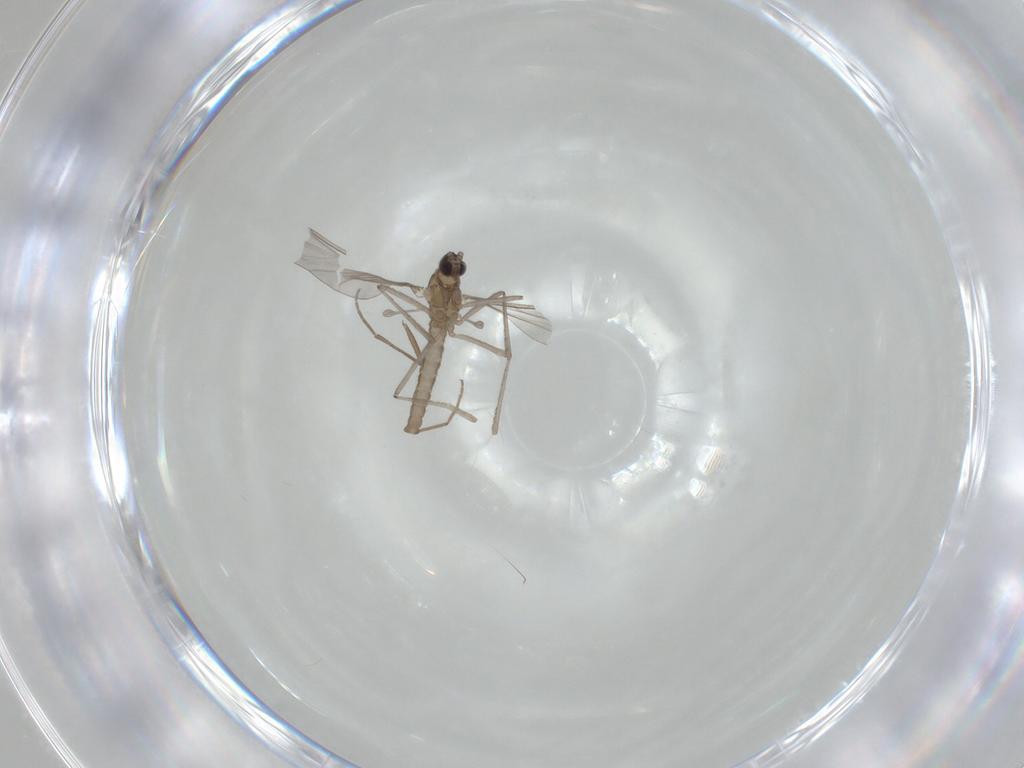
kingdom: Animalia
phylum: Arthropoda
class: Insecta
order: Diptera
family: Cecidomyiidae
